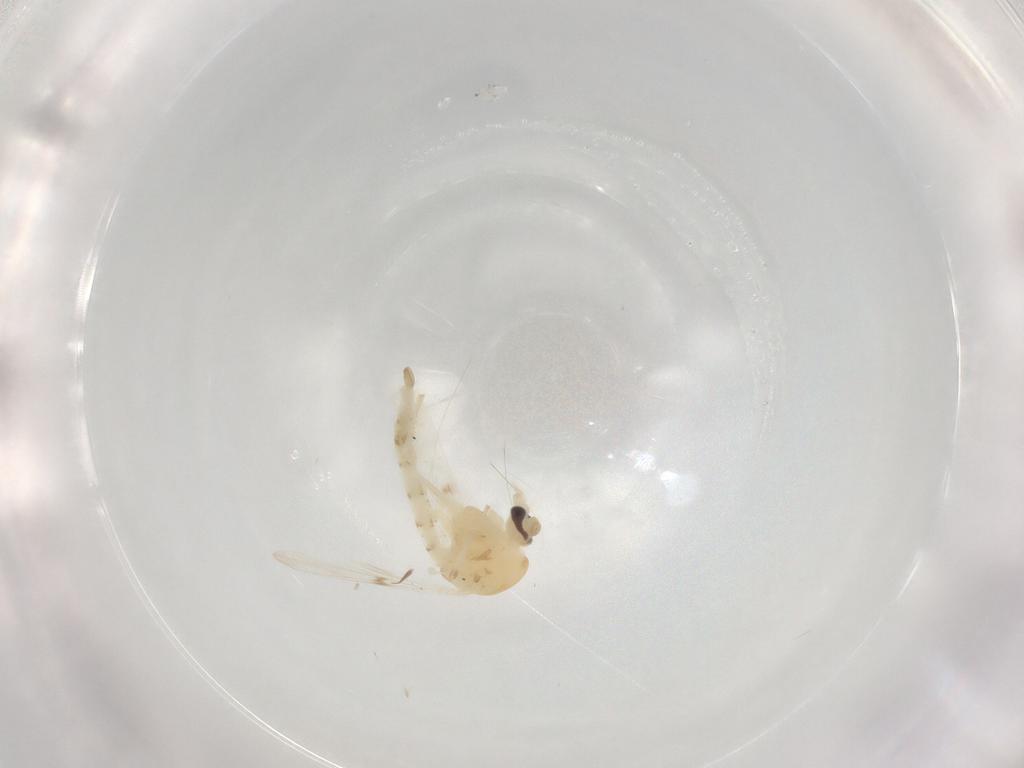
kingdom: Animalia
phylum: Arthropoda
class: Insecta
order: Diptera
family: Chironomidae
